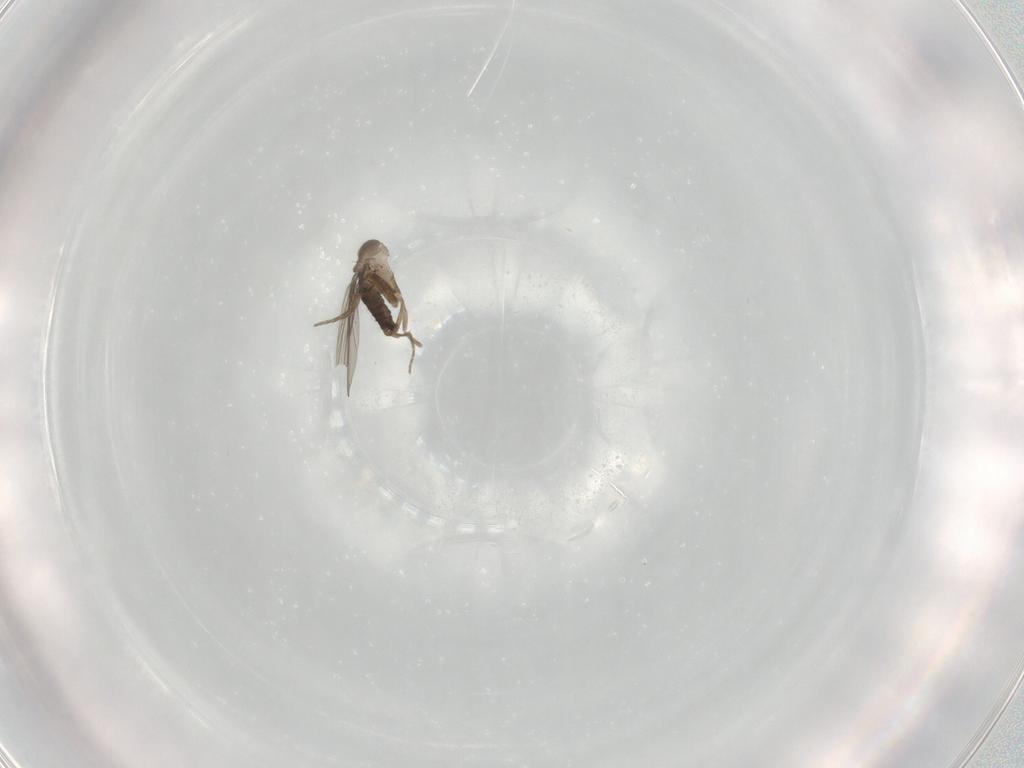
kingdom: Animalia
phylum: Arthropoda
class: Insecta
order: Diptera
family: Phoridae
